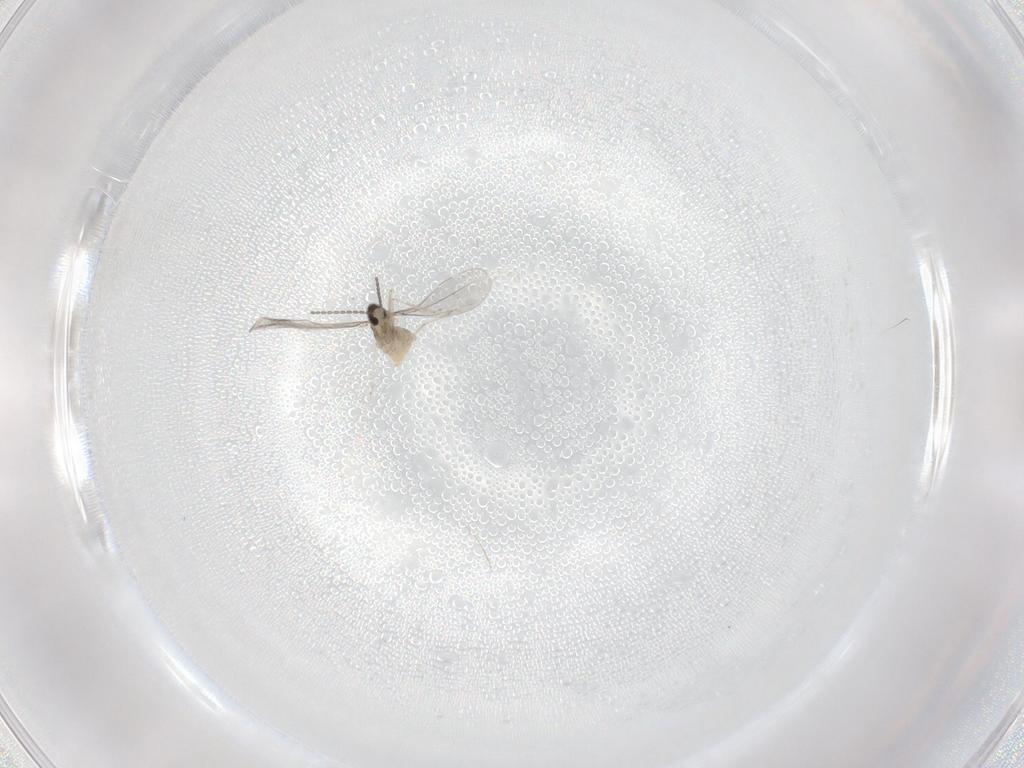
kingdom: Animalia
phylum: Arthropoda
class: Insecta
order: Diptera
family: Cecidomyiidae
